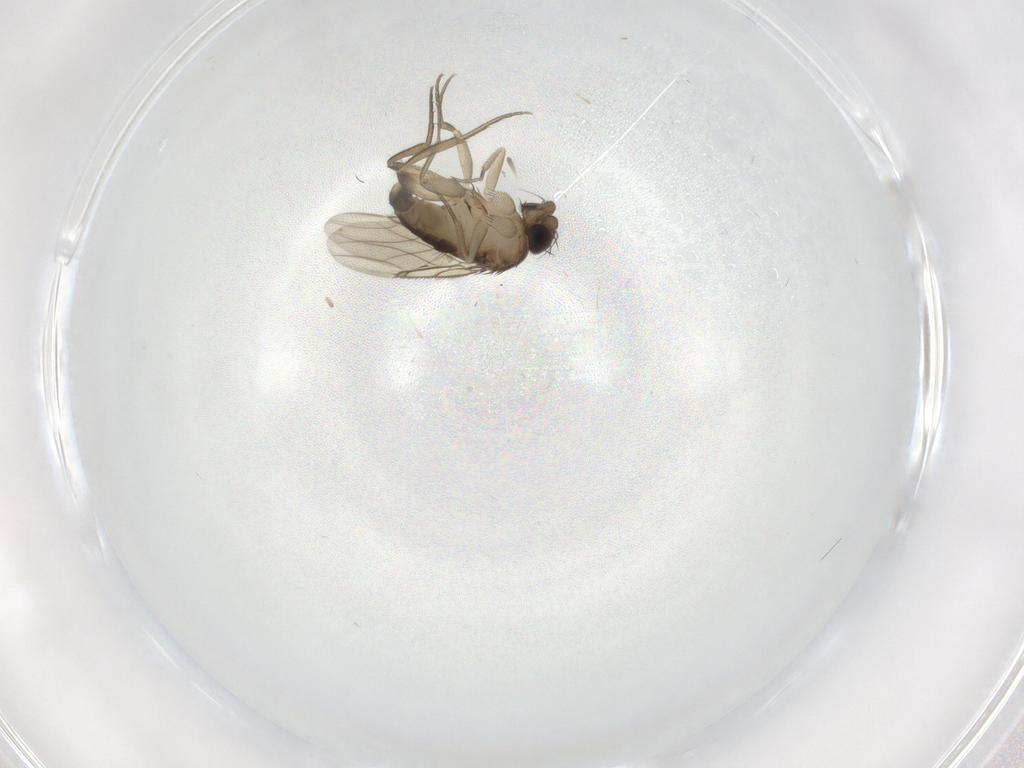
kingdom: Animalia
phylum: Arthropoda
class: Insecta
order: Diptera
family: Phoridae
